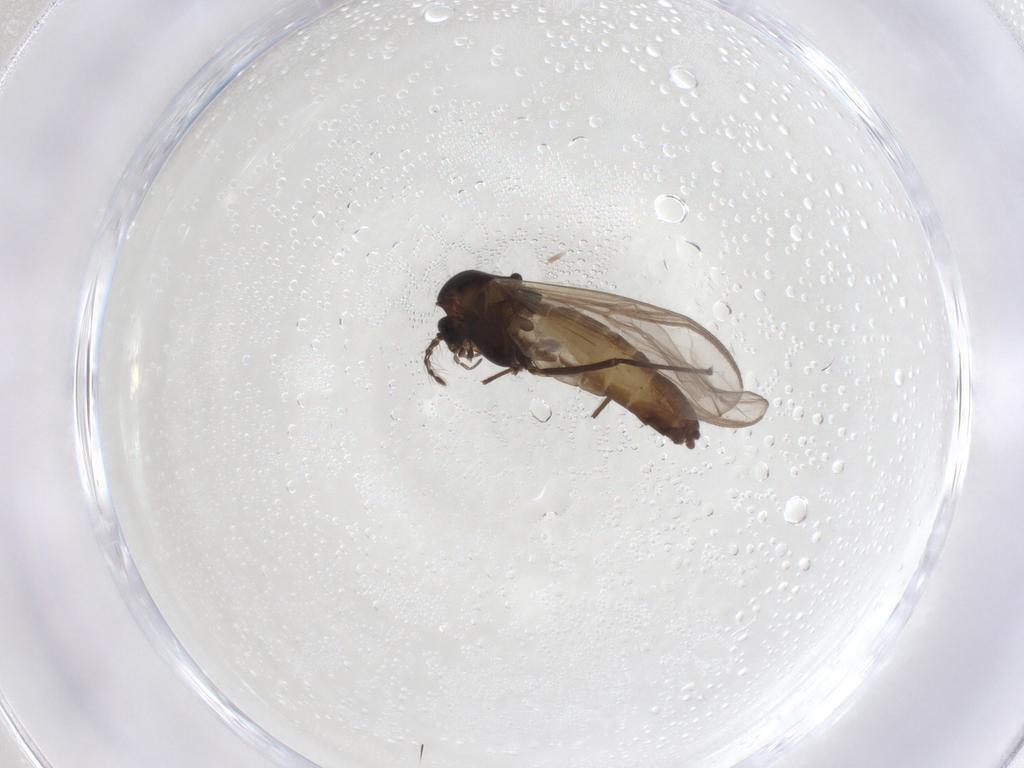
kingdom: Animalia
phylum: Arthropoda
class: Insecta
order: Diptera
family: Chironomidae
